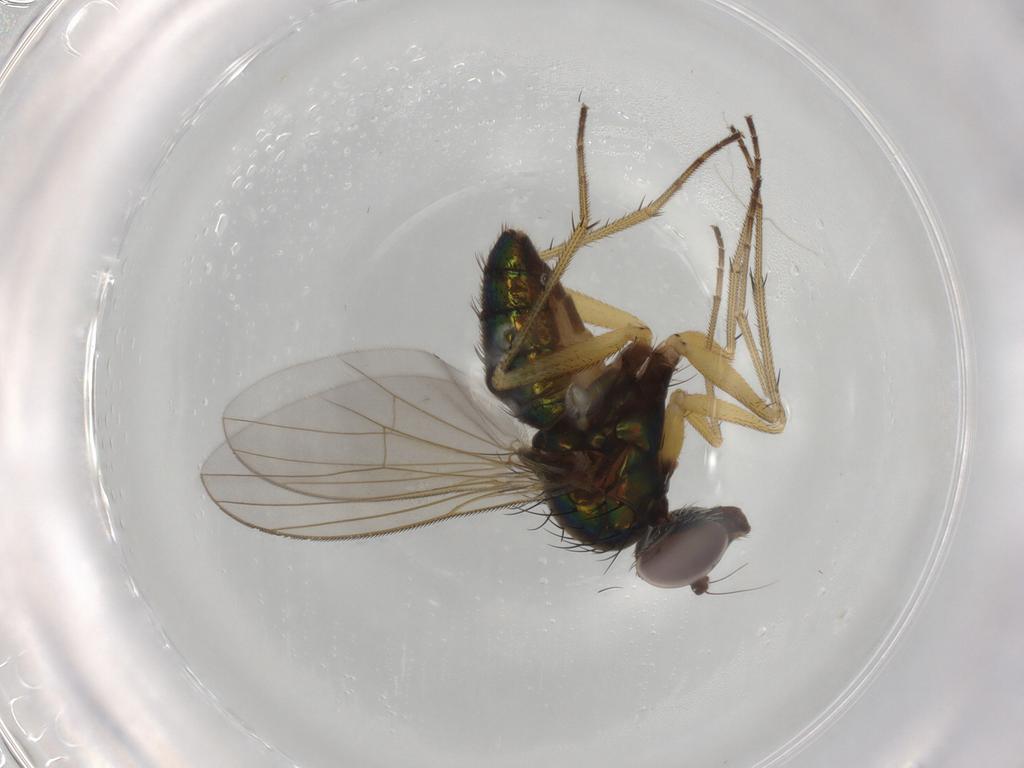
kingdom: Animalia
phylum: Arthropoda
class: Insecta
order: Diptera
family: Dolichopodidae
